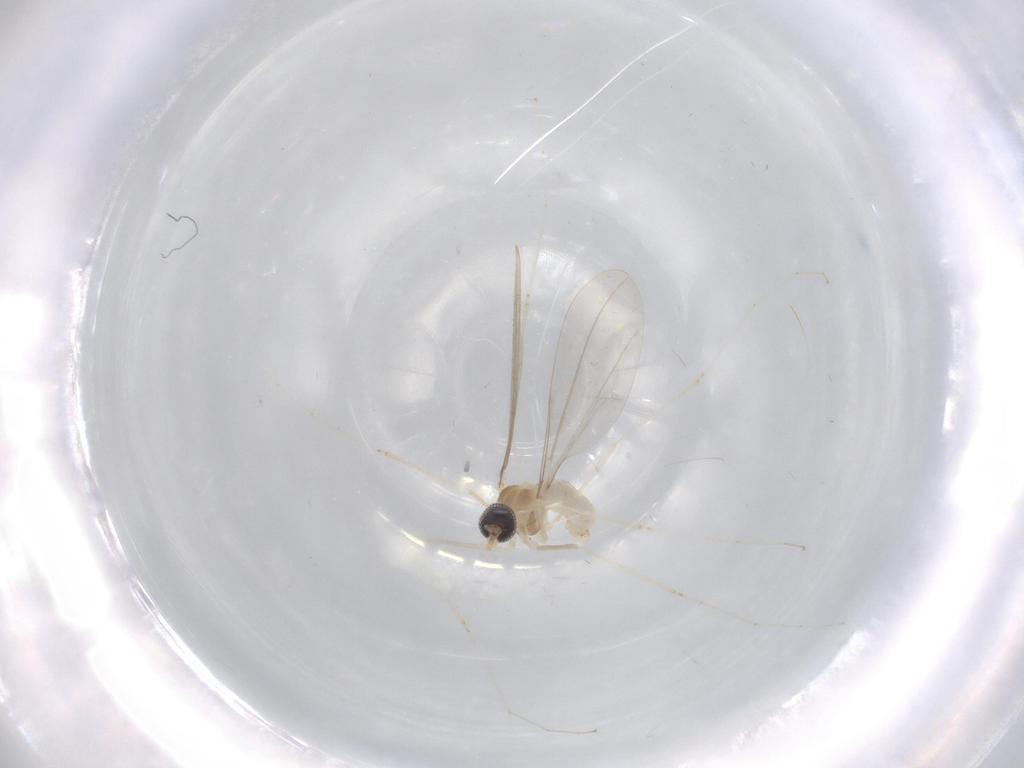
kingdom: Animalia
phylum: Arthropoda
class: Insecta
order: Diptera
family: Cecidomyiidae
